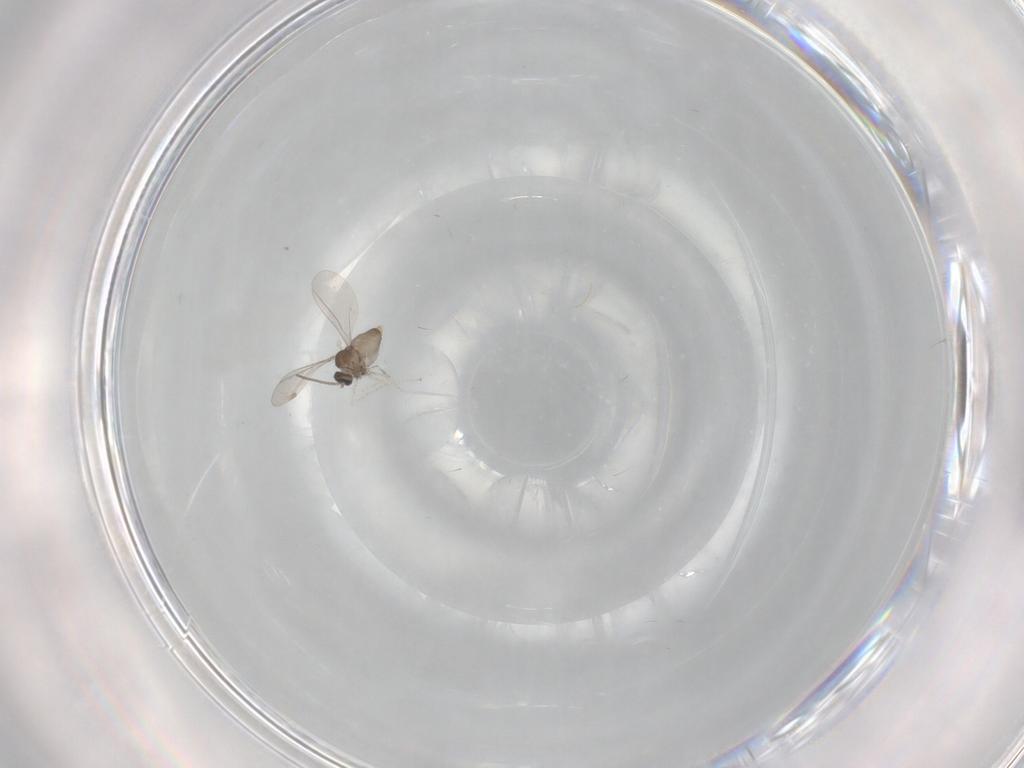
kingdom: Animalia
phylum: Arthropoda
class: Insecta
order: Diptera
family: Cecidomyiidae
